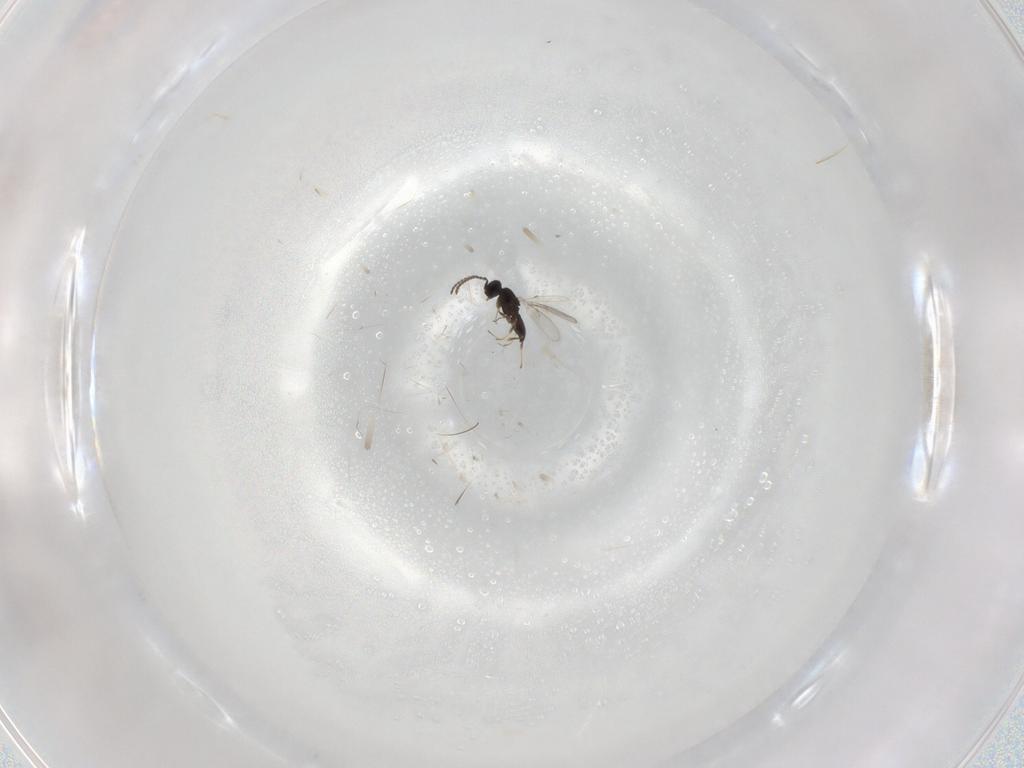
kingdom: Animalia
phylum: Arthropoda
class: Insecta
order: Hymenoptera
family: Scelionidae
